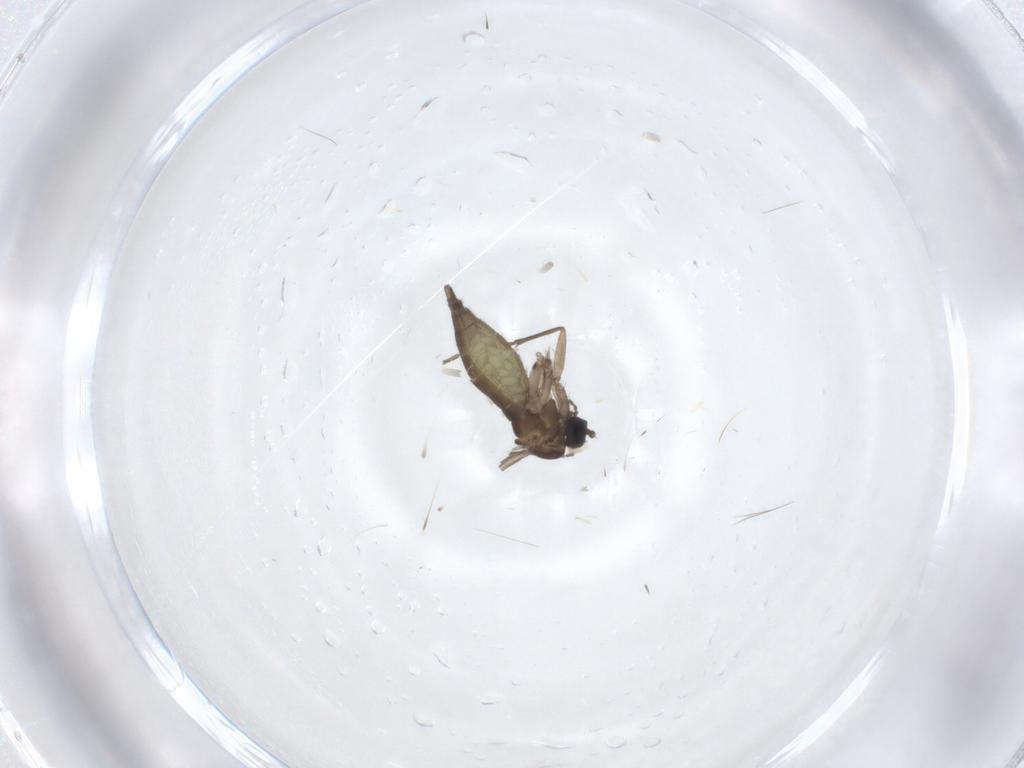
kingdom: Animalia
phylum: Arthropoda
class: Insecta
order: Diptera
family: Sciaridae
